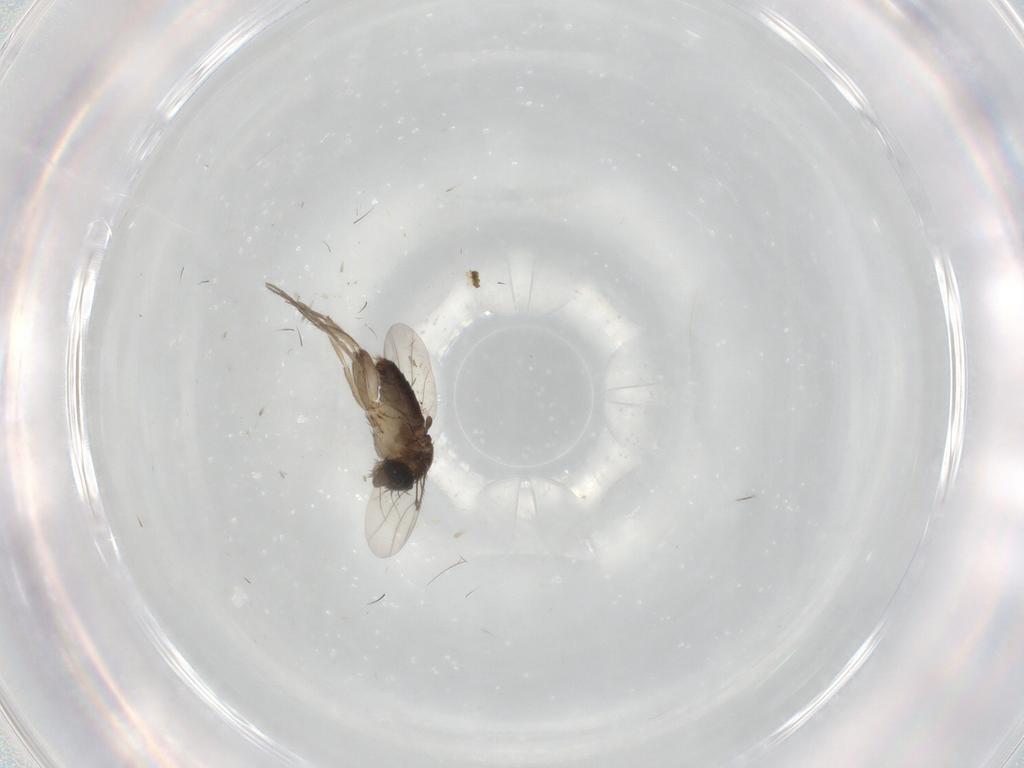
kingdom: Animalia
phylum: Arthropoda
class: Insecta
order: Diptera
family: Phoridae
